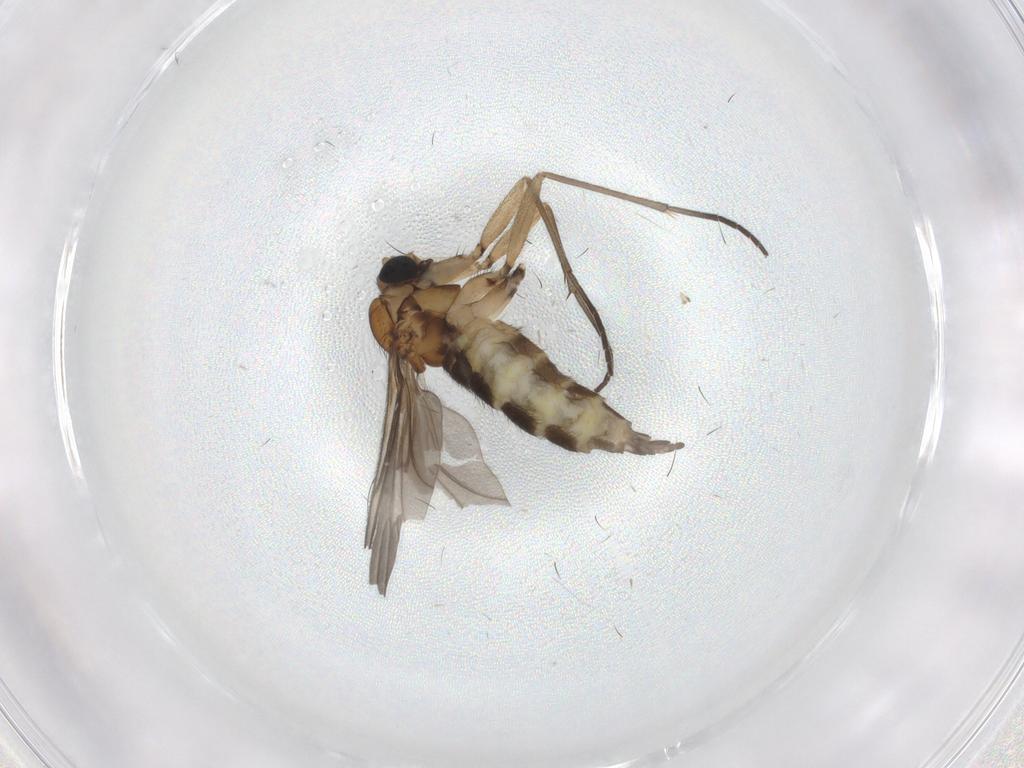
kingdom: Animalia
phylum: Arthropoda
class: Insecta
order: Diptera
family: Sciaridae
